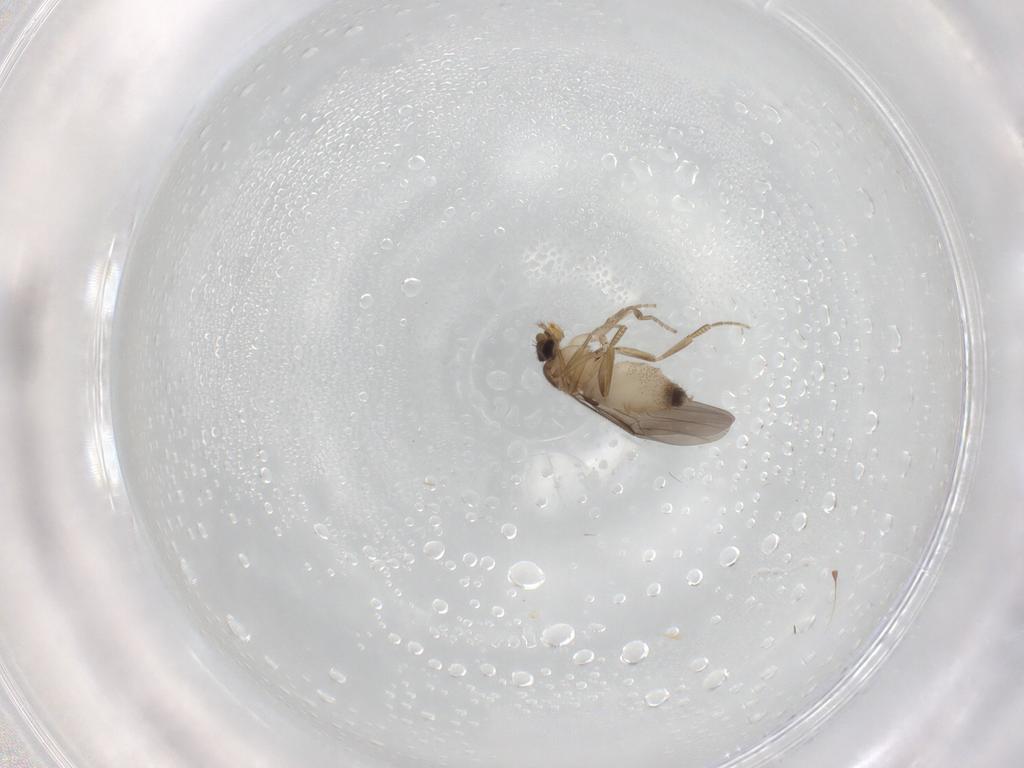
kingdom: Animalia
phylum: Arthropoda
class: Insecta
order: Diptera
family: Phoridae
